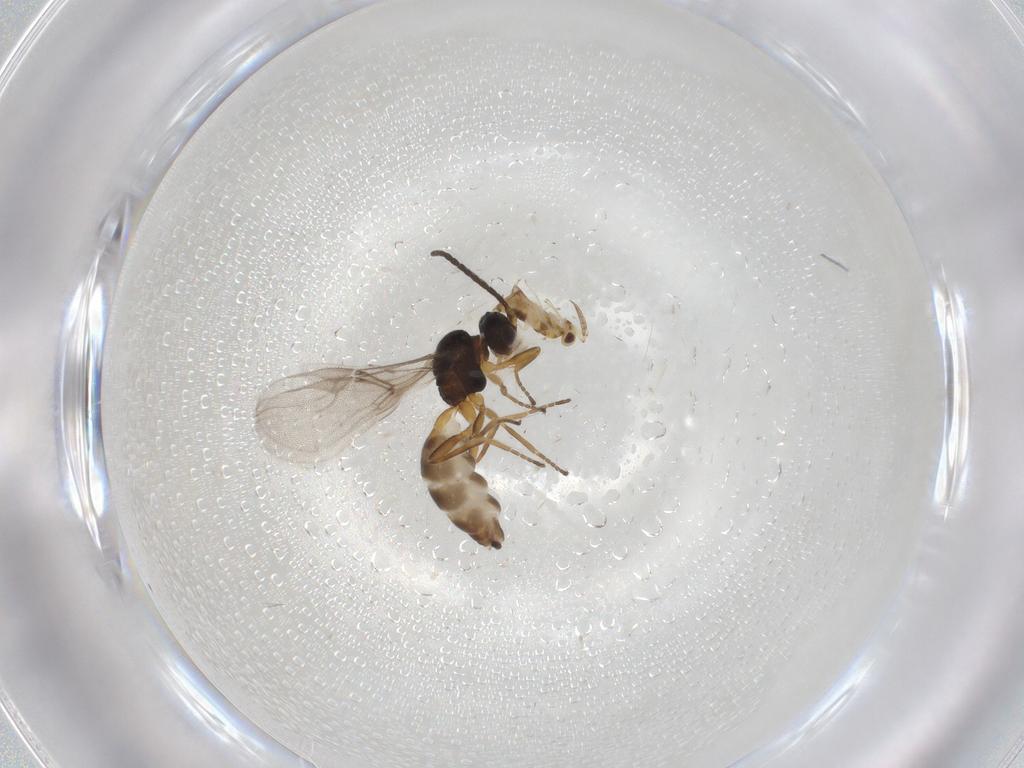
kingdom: Animalia
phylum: Arthropoda
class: Insecta
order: Hymenoptera
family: Braconidae
